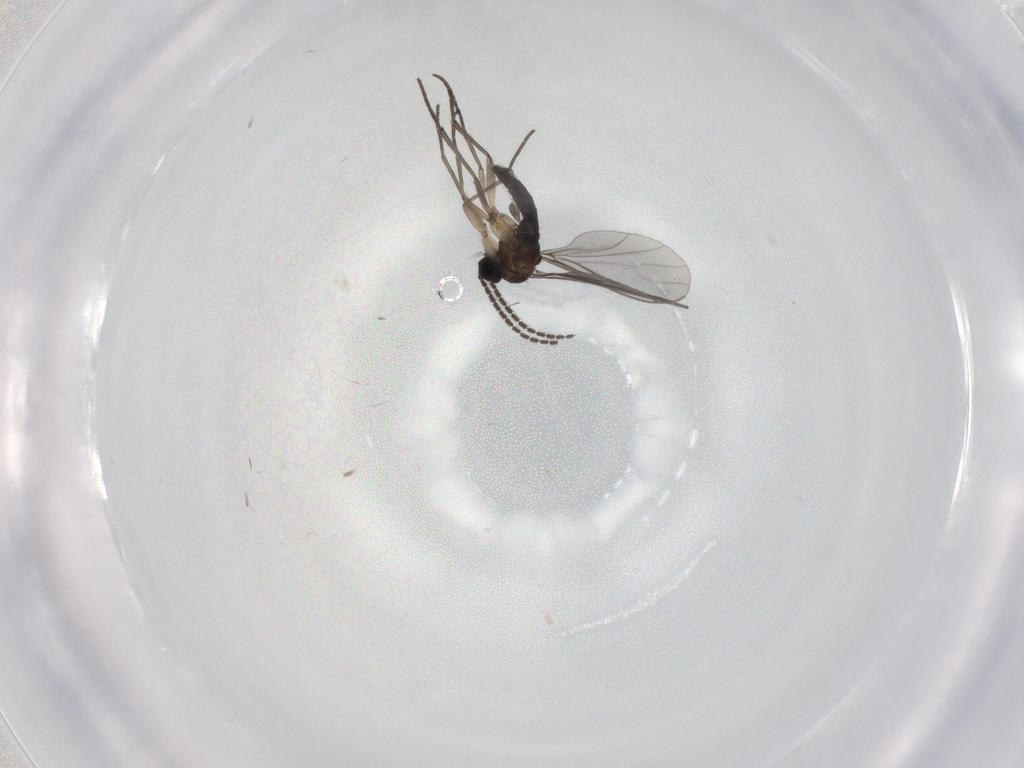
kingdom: Animalia
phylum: Arthropoda
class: Insecta
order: Diptera
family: Sciaridae
